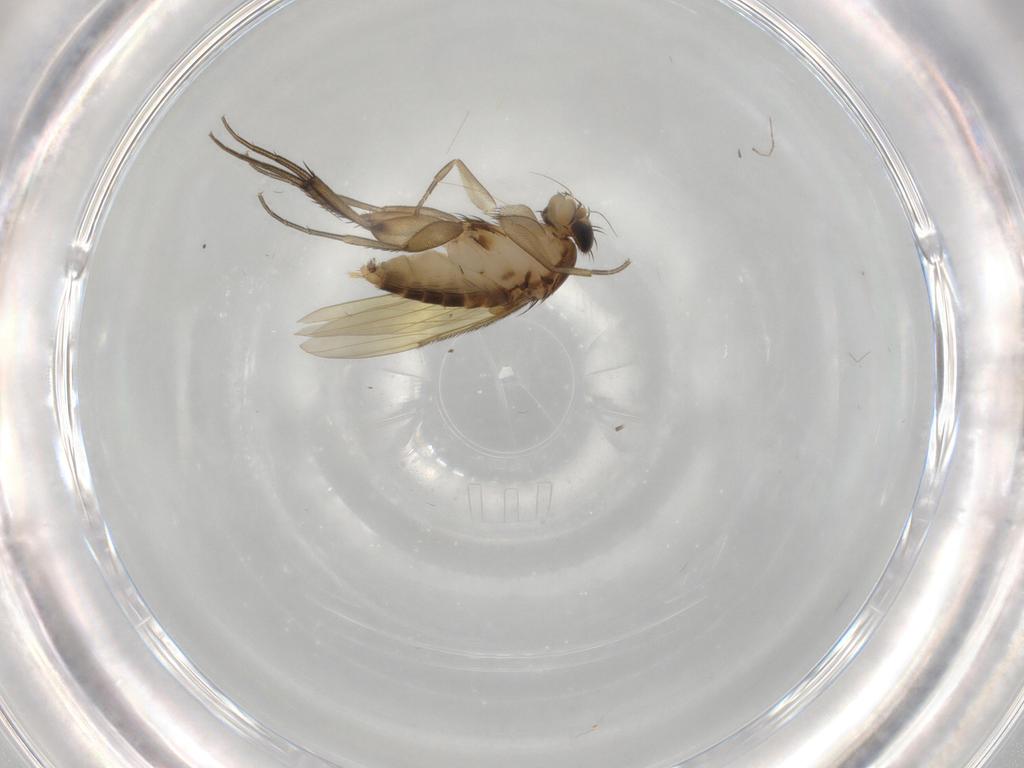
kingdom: Animalia
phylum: Arthropoda
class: Insecta
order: Diptera
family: Phoridae
